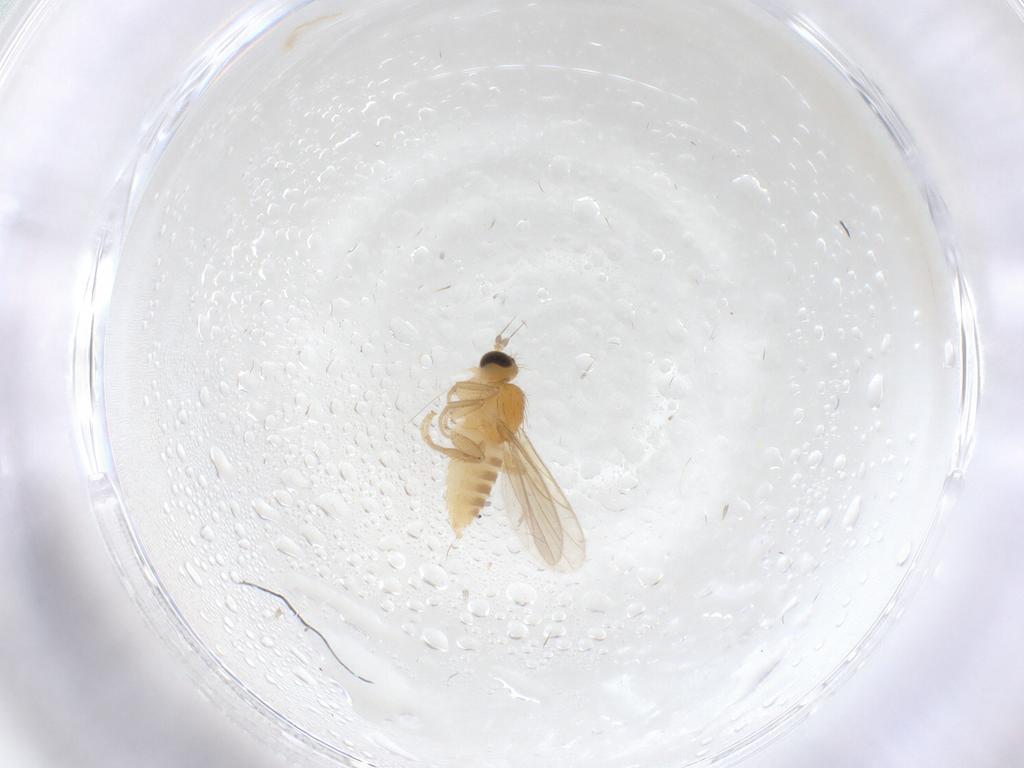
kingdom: Animalia
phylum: Arthropoda
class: Insecta
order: Diptera
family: Hybotidae
